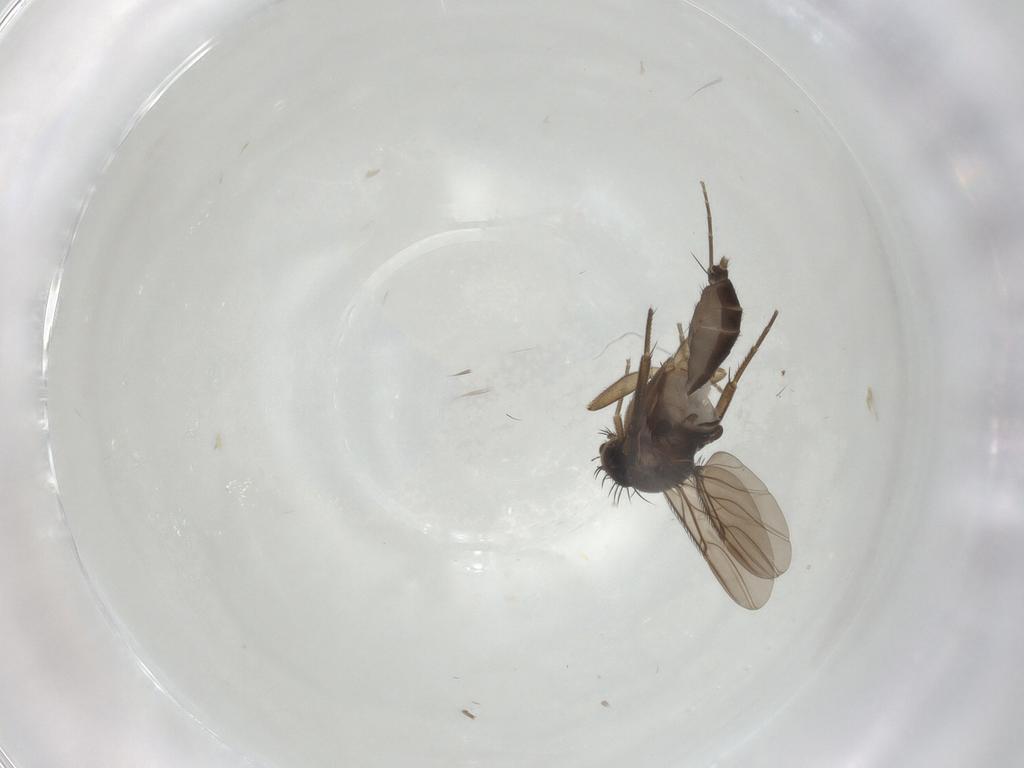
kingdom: Animalia
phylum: Arthropoda
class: Insecta
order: Diptera
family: Phoridae
